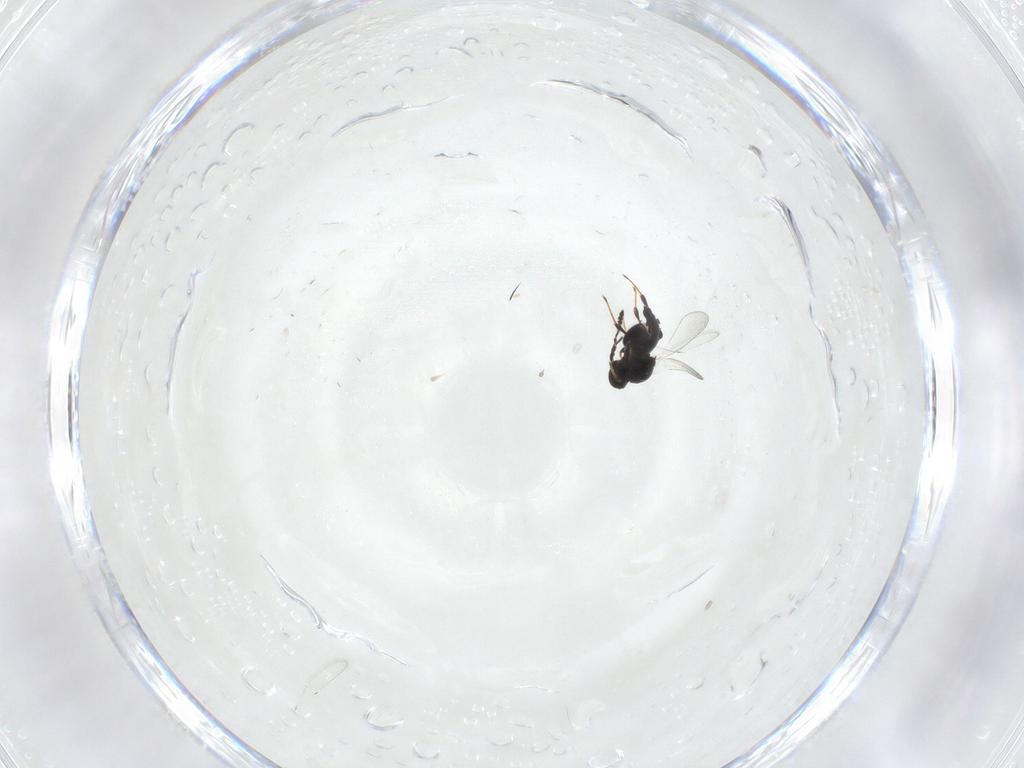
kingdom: Animalia
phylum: Arthropoda
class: Insecta
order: Hymenoptera
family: Platygastridae
